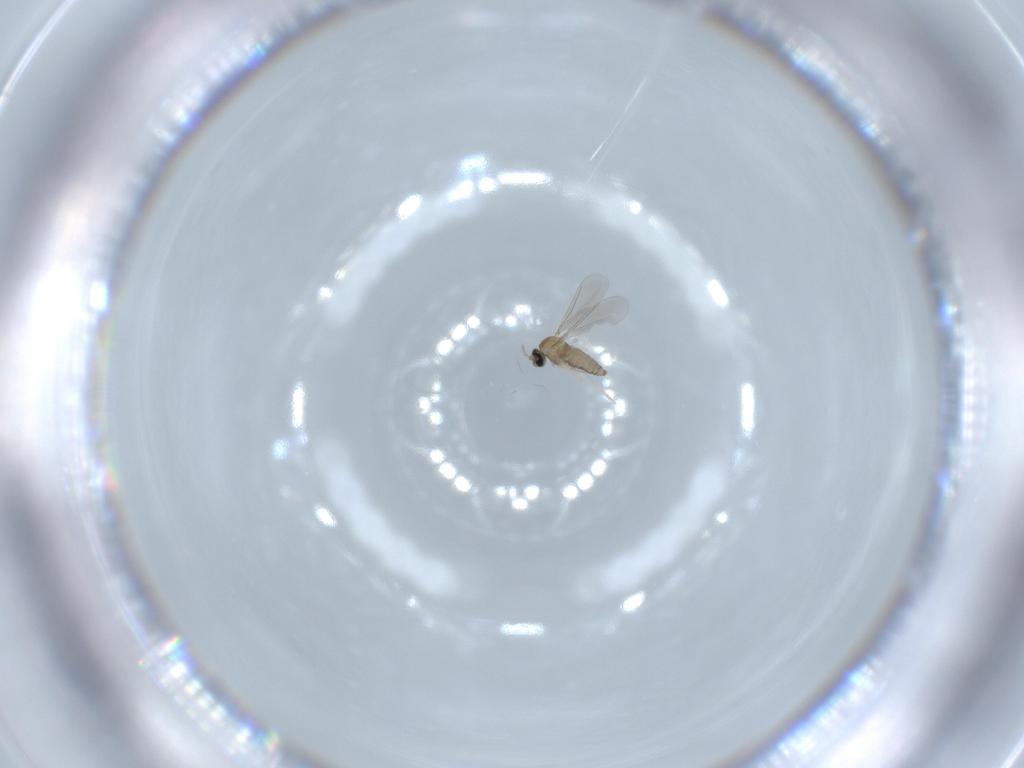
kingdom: Animalia
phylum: Arthropoda
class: Insecta
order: Diptera
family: Cecidomyiidae
